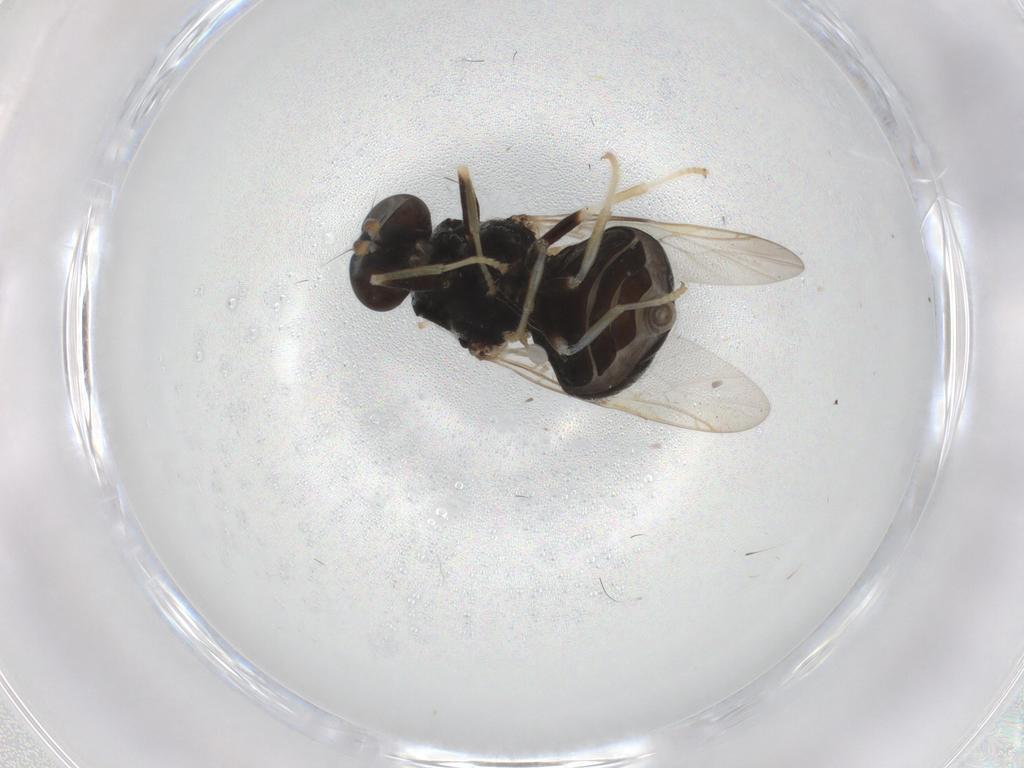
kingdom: Animalia
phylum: Arthropoda
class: Insecta
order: Diptera
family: Stratiomyidae
